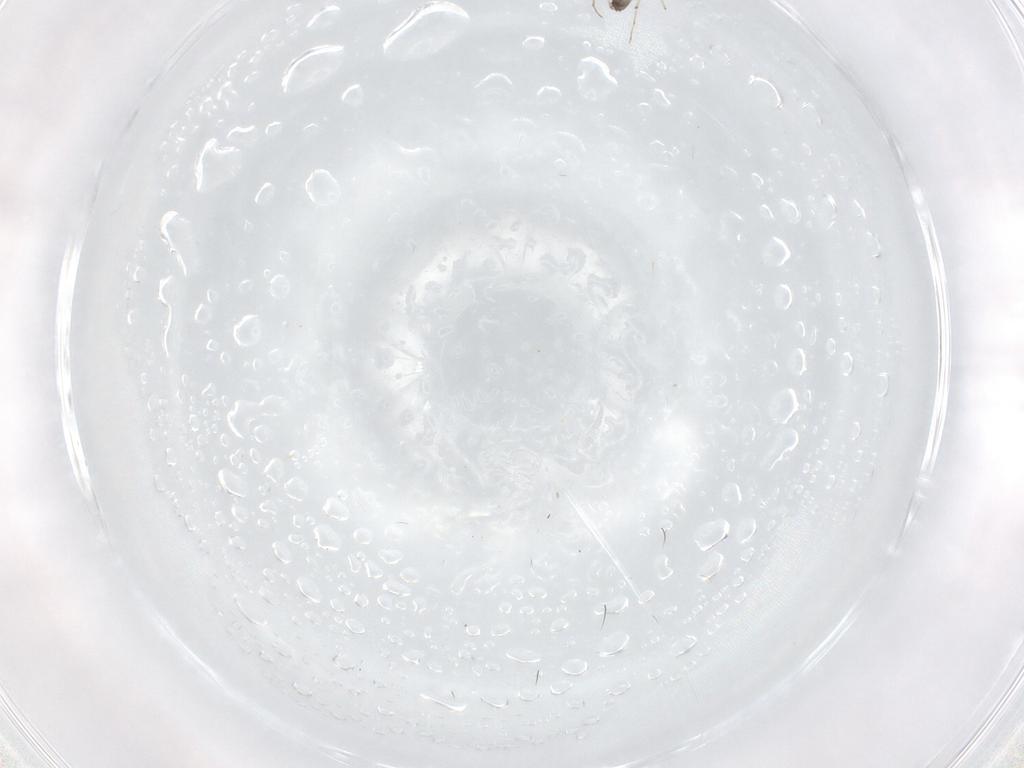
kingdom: Animalia
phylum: Arthropoda
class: Insecta
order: Diptera
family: Chironomidae
